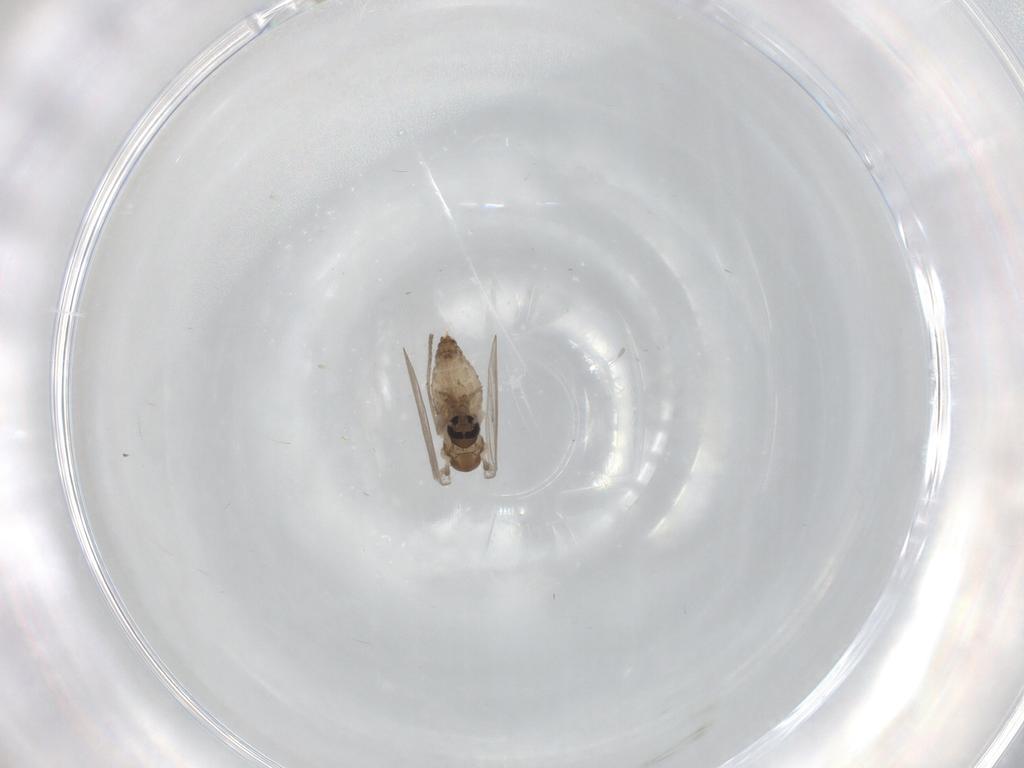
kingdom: Animalia
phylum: Arthropoda
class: Insecta
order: Diptera
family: Psychodidae
